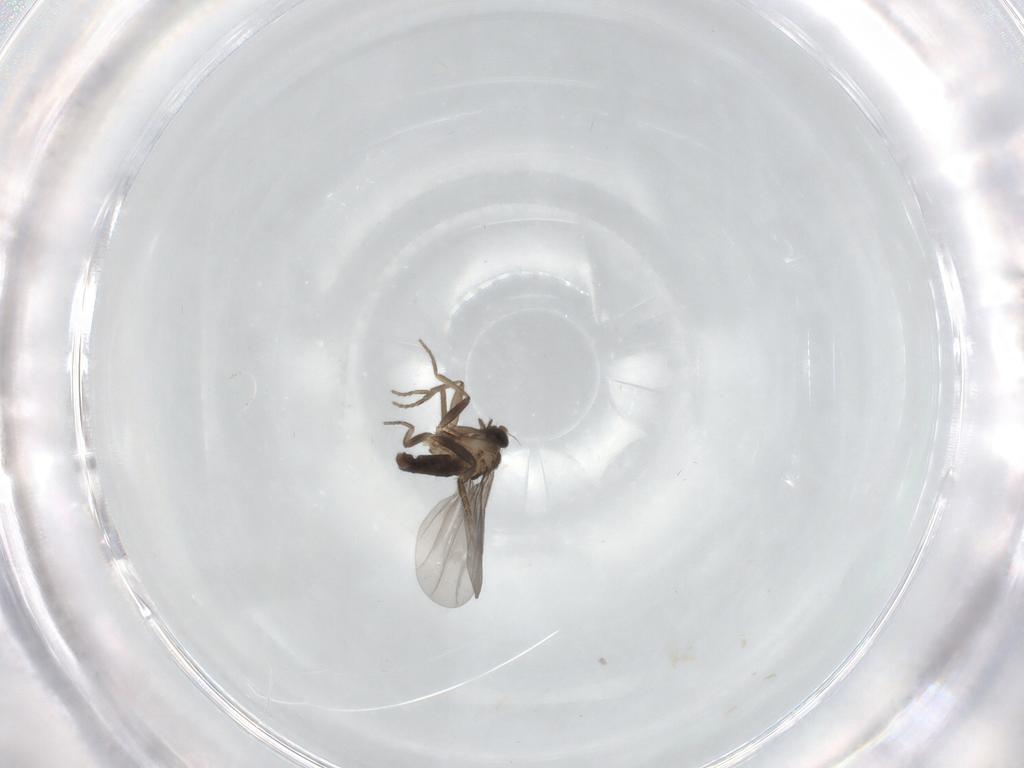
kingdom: Animalia
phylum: Arthropoda
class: Insecta
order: Diptera
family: Phoridae
